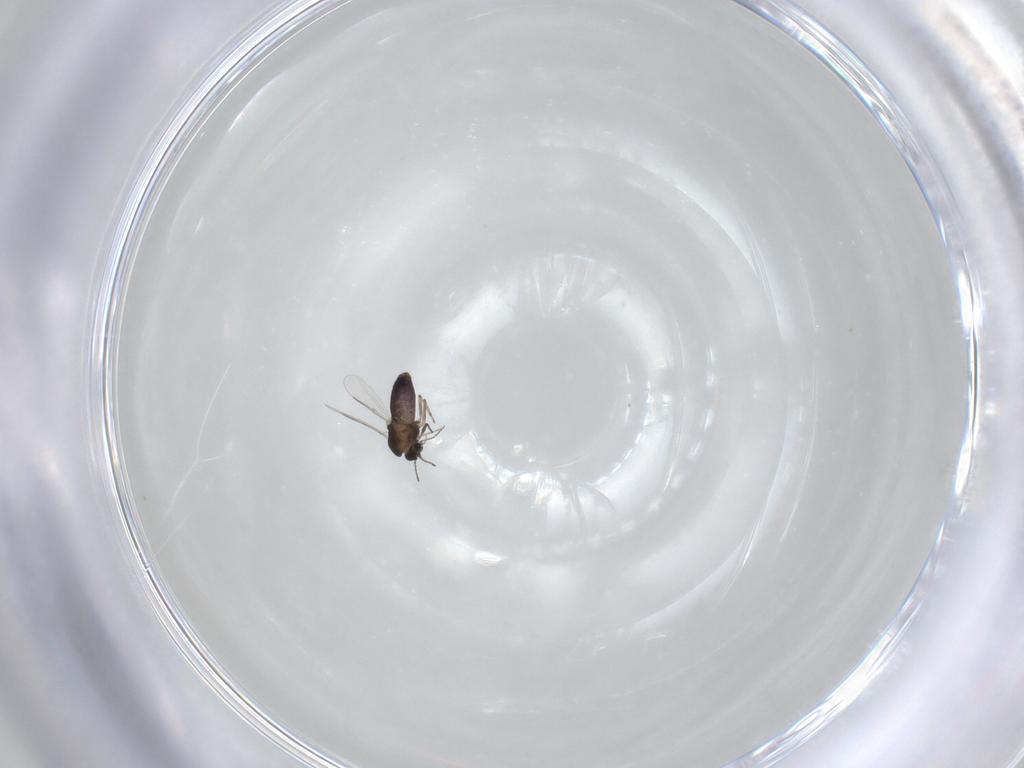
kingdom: Animalia
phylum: Arthropoda
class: Insecta
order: Diptera
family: Chironomidae
